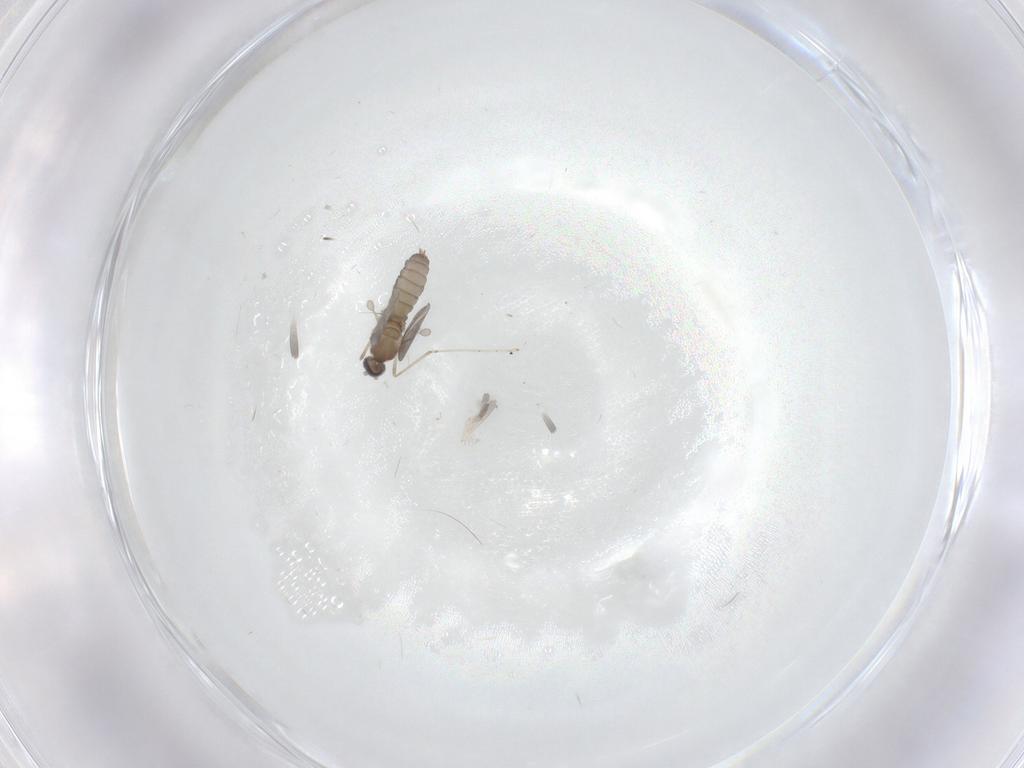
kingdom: Animalia
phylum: Arthropoda
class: Insecta
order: Diptera
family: Cecidomyiidae
